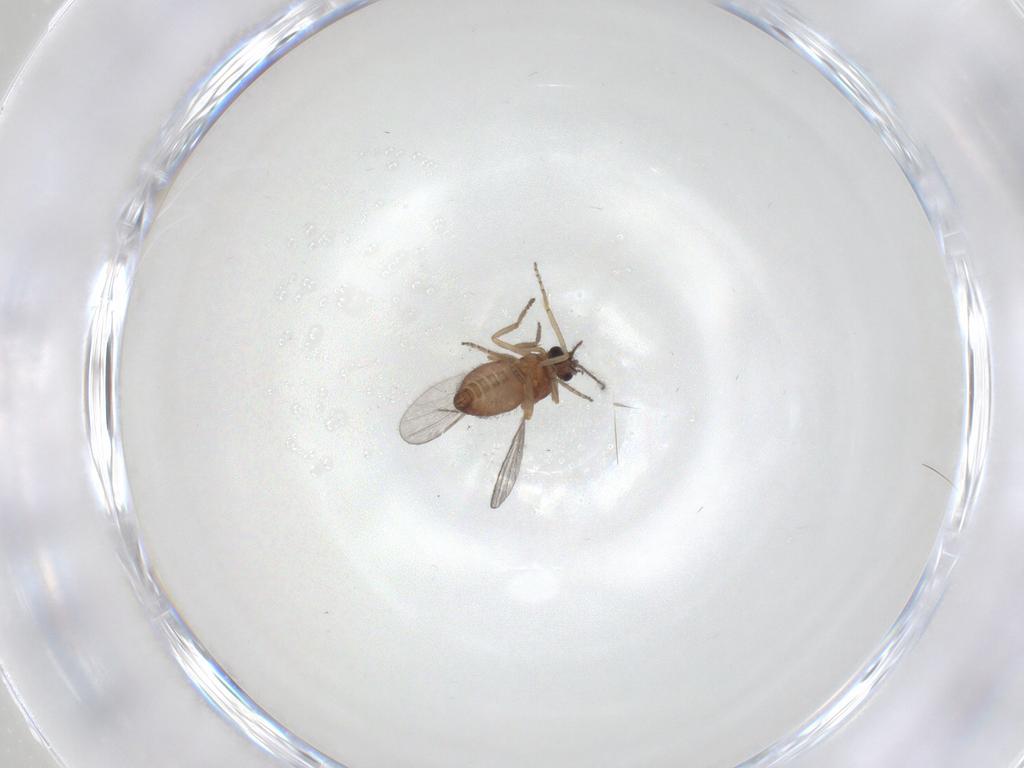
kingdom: Animalia
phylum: Arthropoda
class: Insecta
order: Diptera
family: Ceratopogonidae
